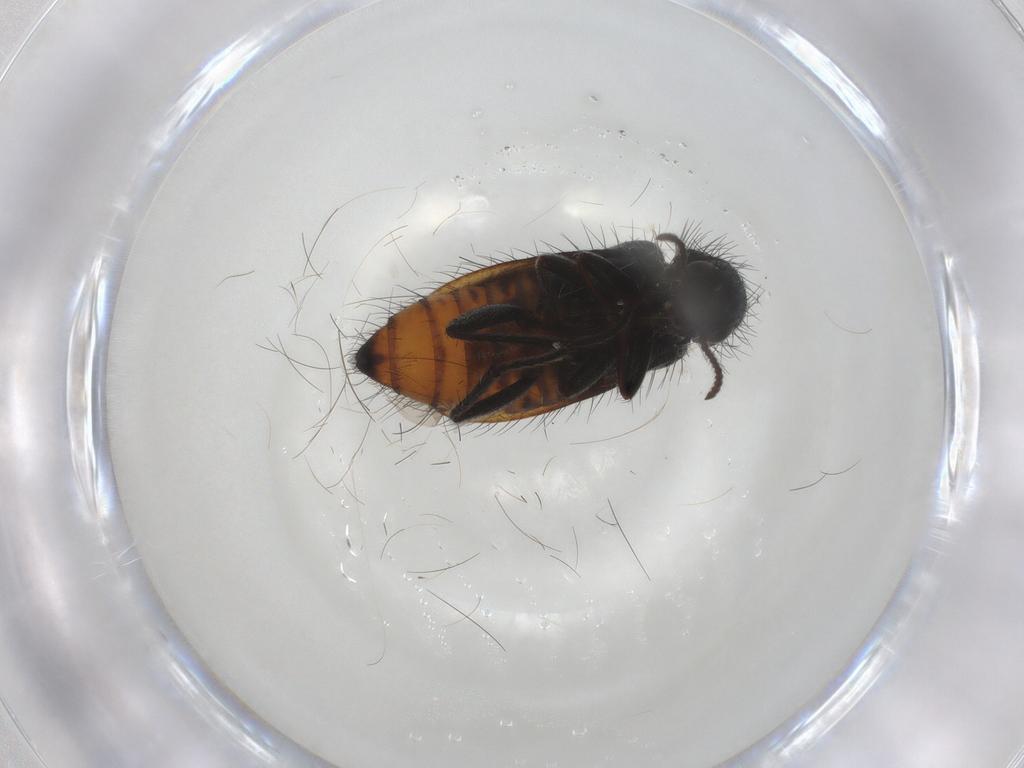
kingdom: Animalia
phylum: Arthropoda
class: Insecta
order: Coleoptera
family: Melyridae
